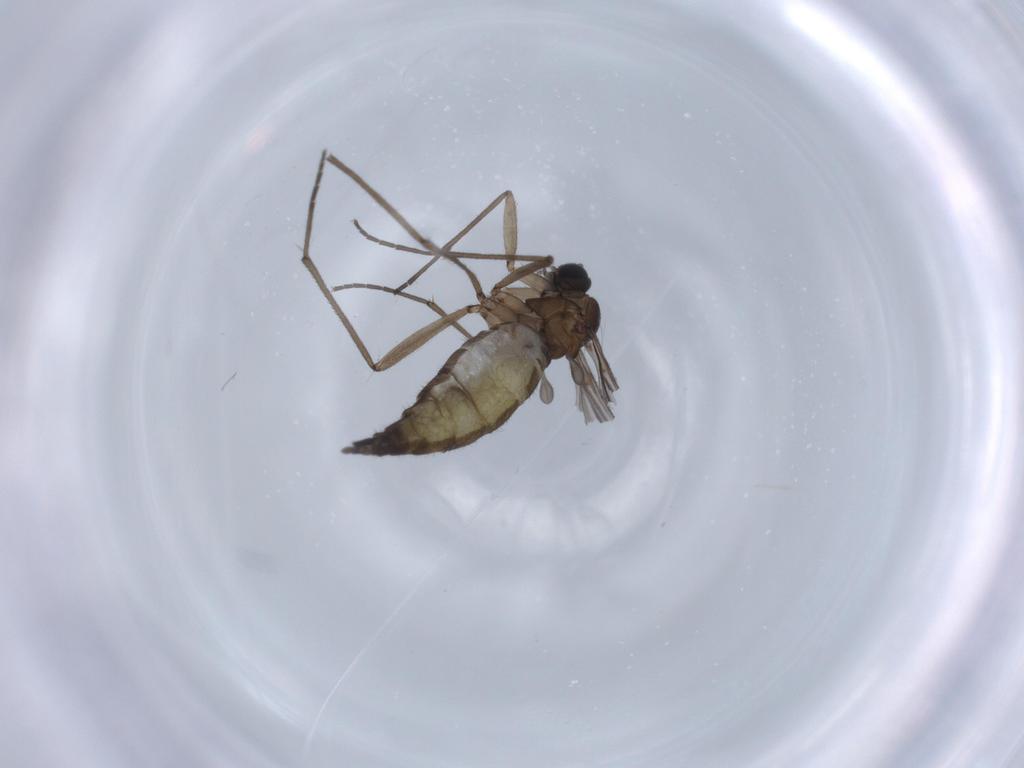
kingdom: Animalia
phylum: Arthropoda
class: Insecta
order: Diptera
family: Sciaridae
